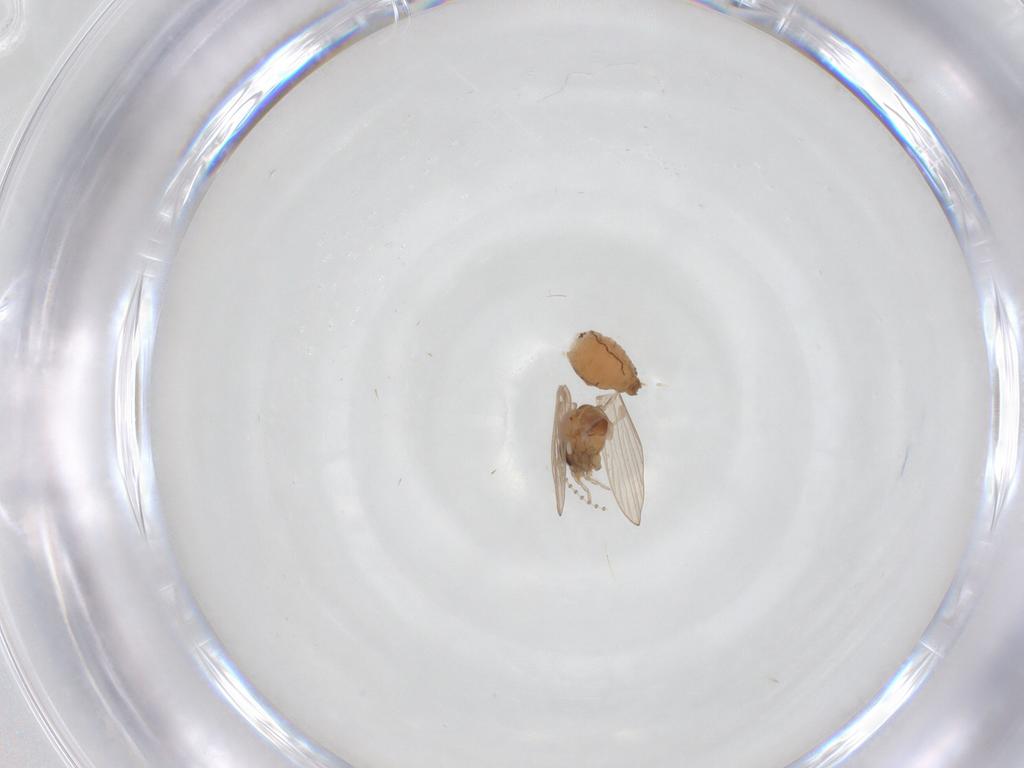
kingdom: Animalia
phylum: Arthropoda
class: Insecta
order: Diptera
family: Psychodidae
